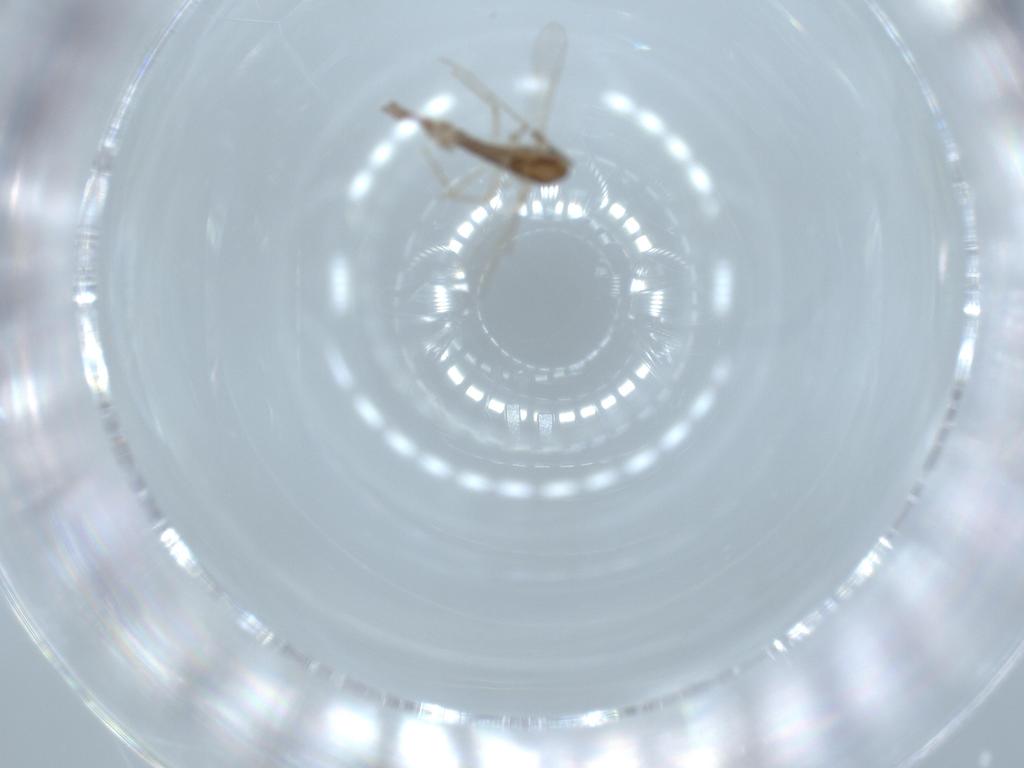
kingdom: Animalia
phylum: Arthropoda
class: Insecta
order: Diptera
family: Chironomidae
